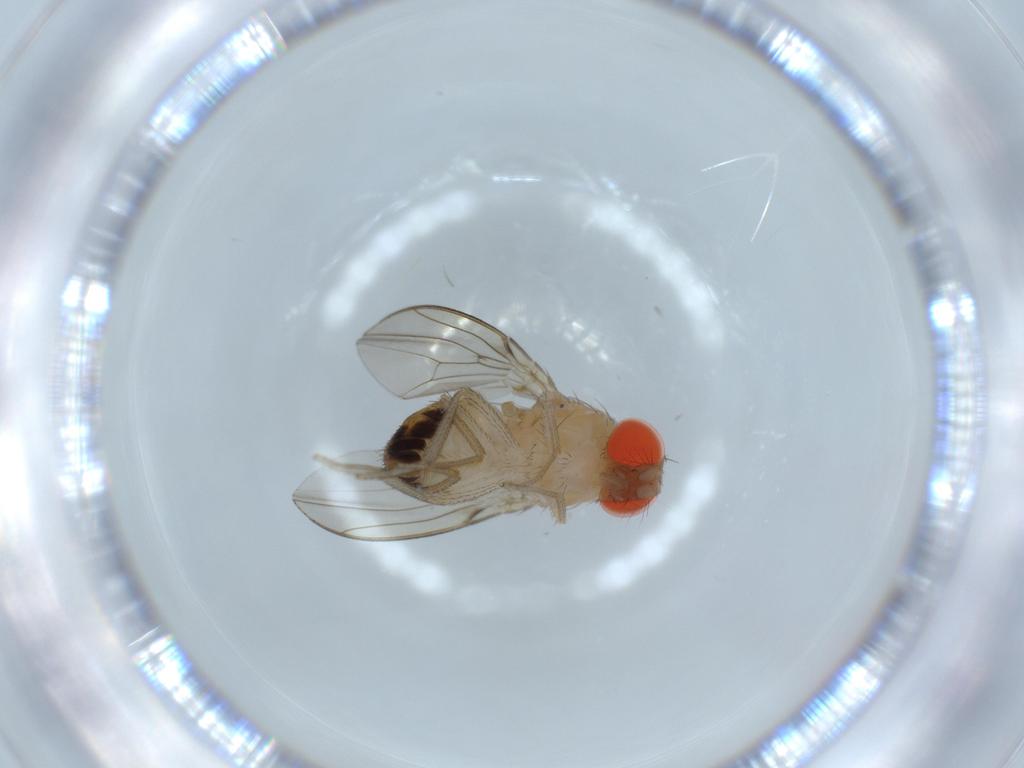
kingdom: Animalia
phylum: Arthropoda
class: Insecta
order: Diptera
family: Drosophilidae
